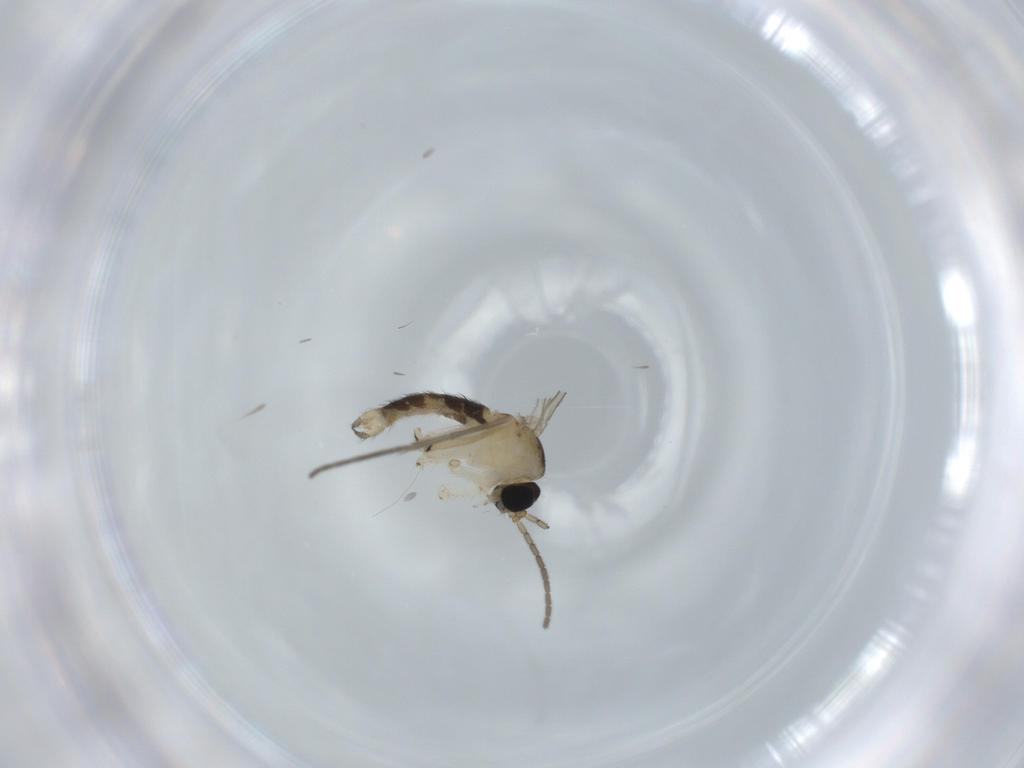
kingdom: Animalia
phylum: Arthropoda
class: Insecta
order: Diptera
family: Sciaridae
